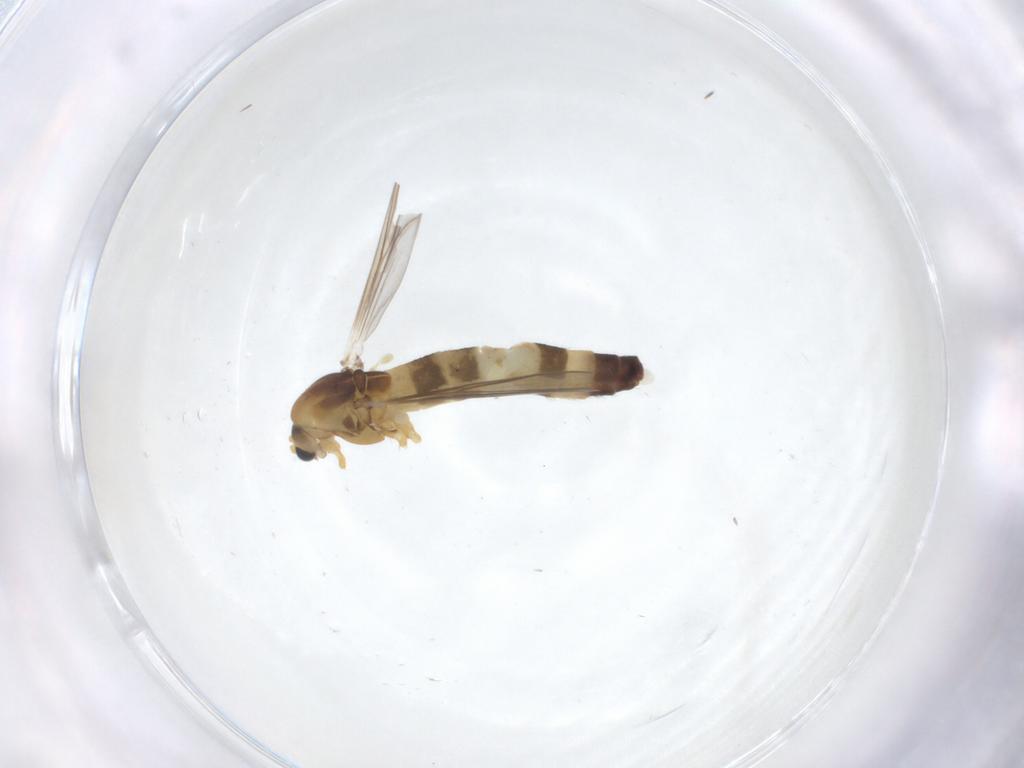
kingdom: Animalia
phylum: Arthropoda
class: Insecta
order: Diptera
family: Chironomidae
